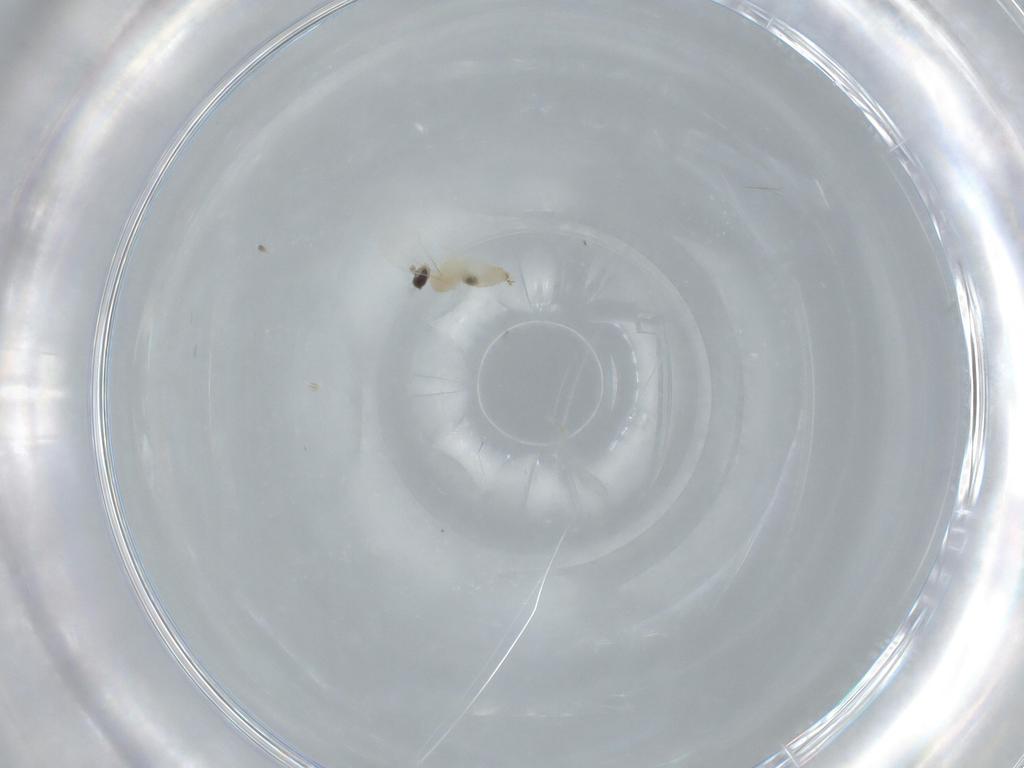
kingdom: Animalia
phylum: Arthropoda
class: Insecta
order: Diptera
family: Cecidomyiidae
